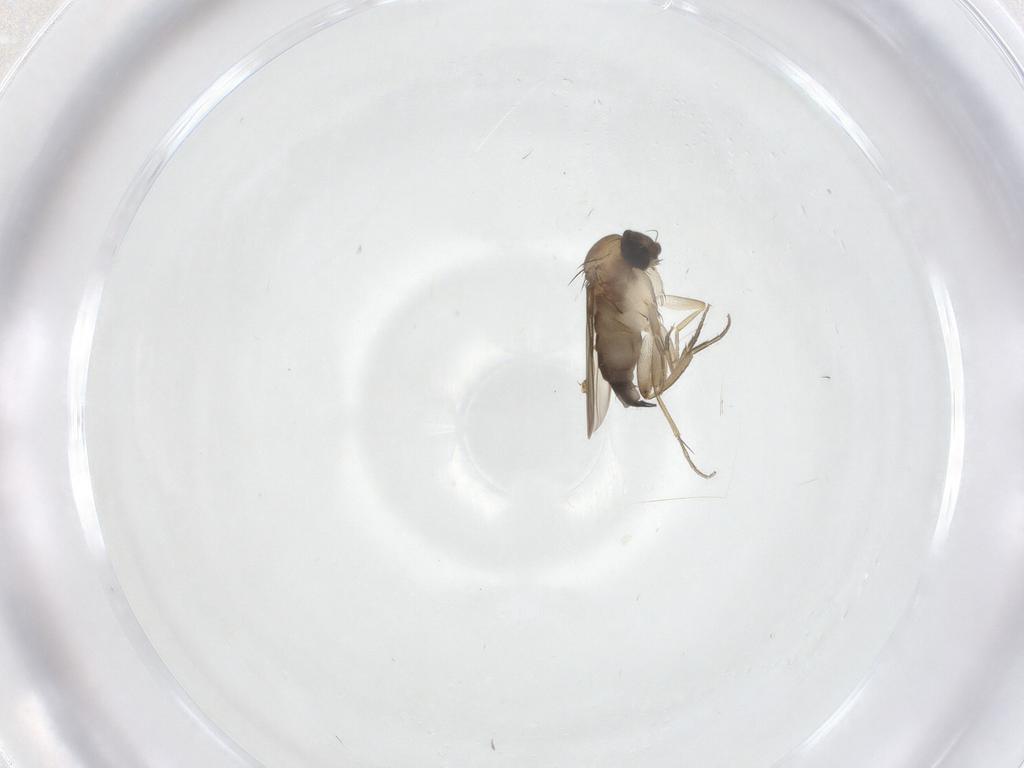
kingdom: Animalia
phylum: Arthropoda
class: Insecta
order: Diptera
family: Phoridae
